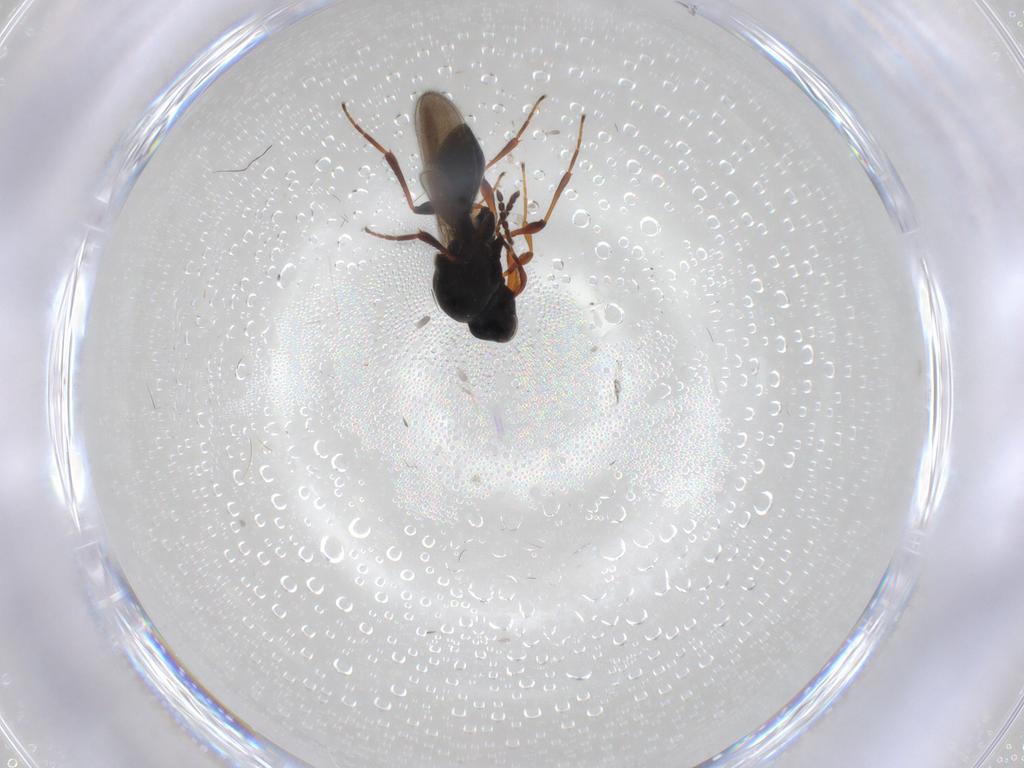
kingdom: Animalia
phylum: Arthropoda
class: Insecta
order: Hymenoptera
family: Platygastridae
